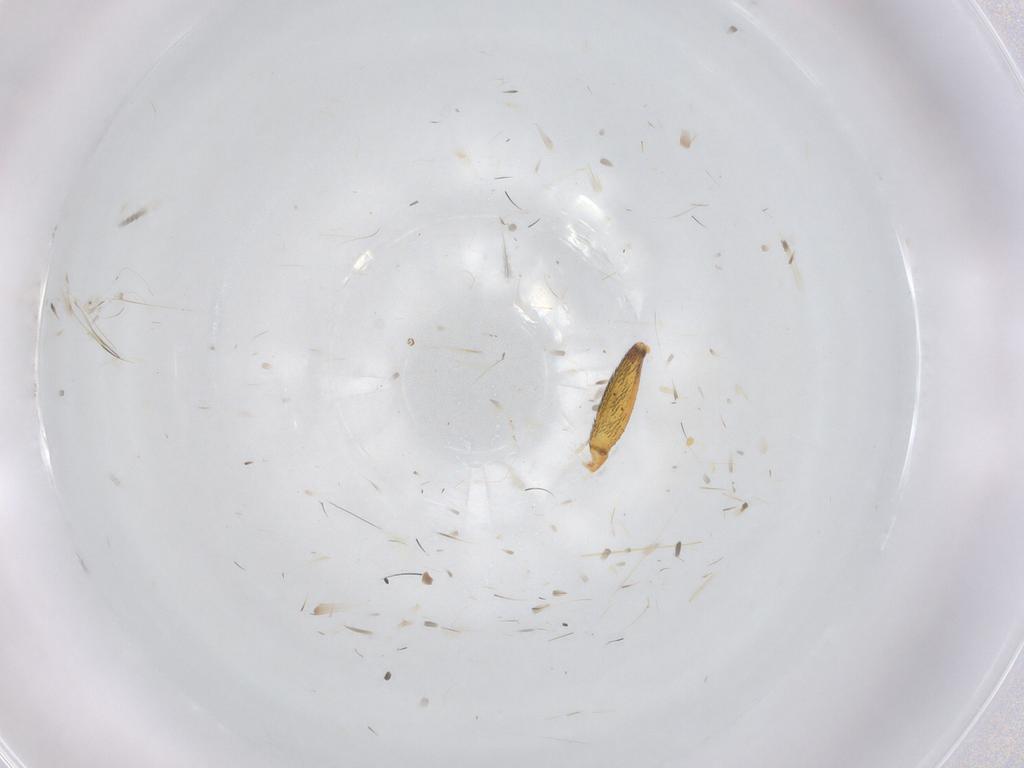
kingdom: Animalia
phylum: Arthropoda
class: Insecta
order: Lepidoptera
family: Geometridae
